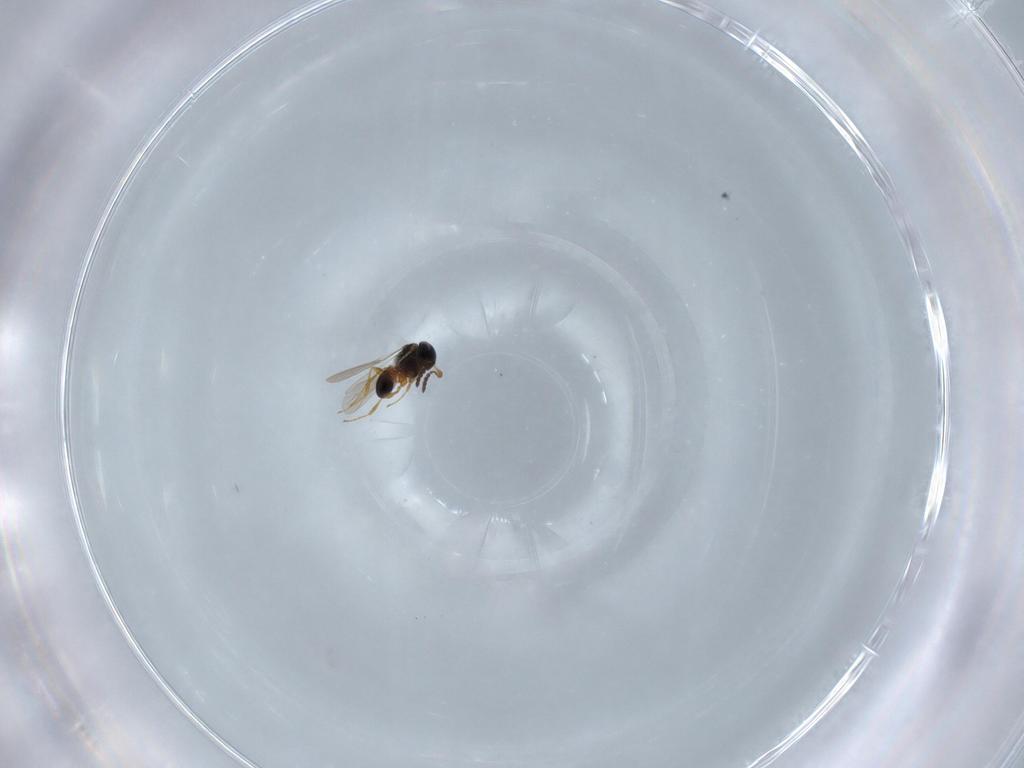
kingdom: Animalia
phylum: Arthropoda
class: Insecta
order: Hymenoptera
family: Platygastridae
